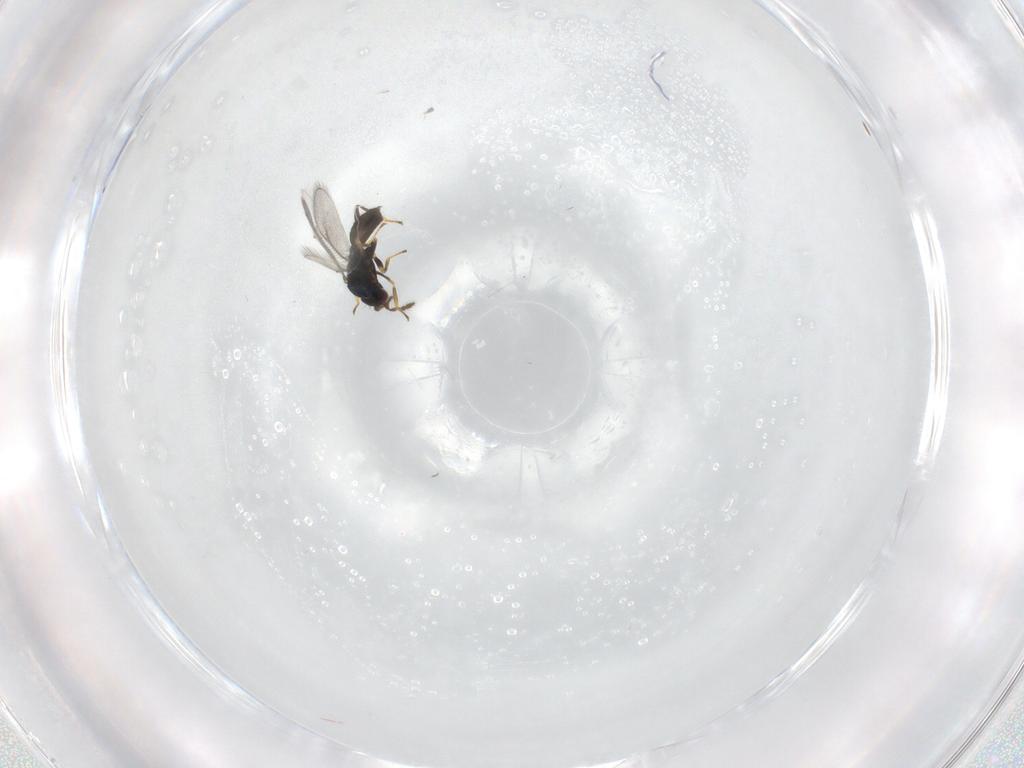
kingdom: Animalia
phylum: Arthropoda
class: Insecta
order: Hymenoptera
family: Eulophidae
